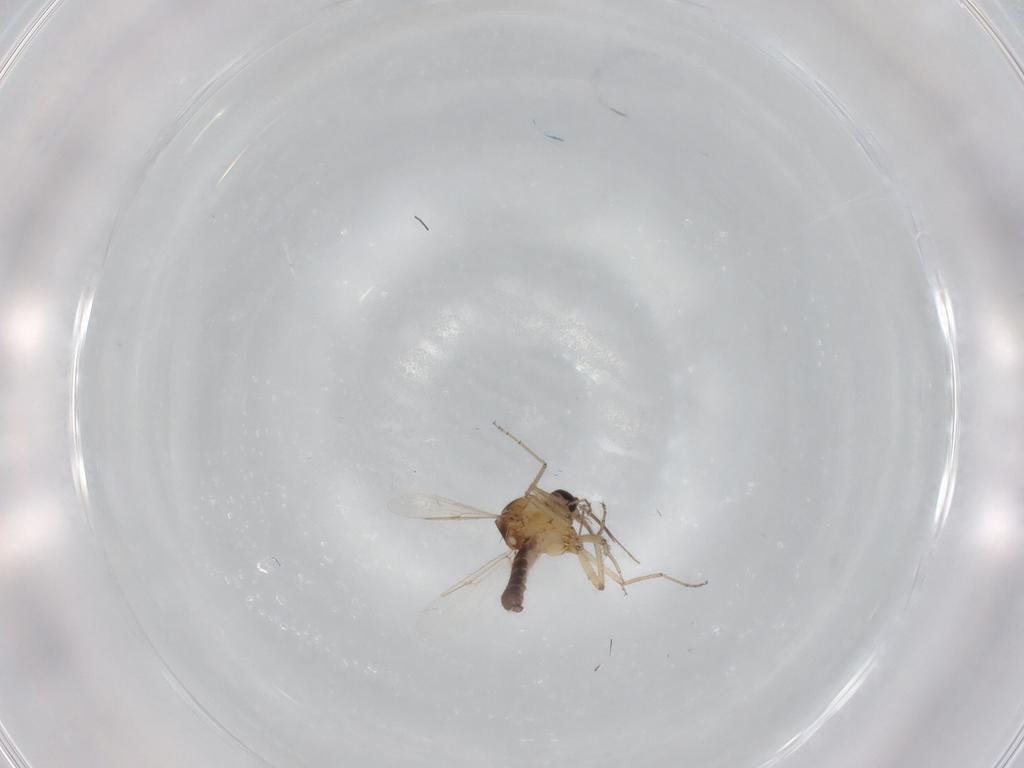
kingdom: Animalia
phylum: Arthropoda
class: Insecta
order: Diptera
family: Ceratopogonidae
